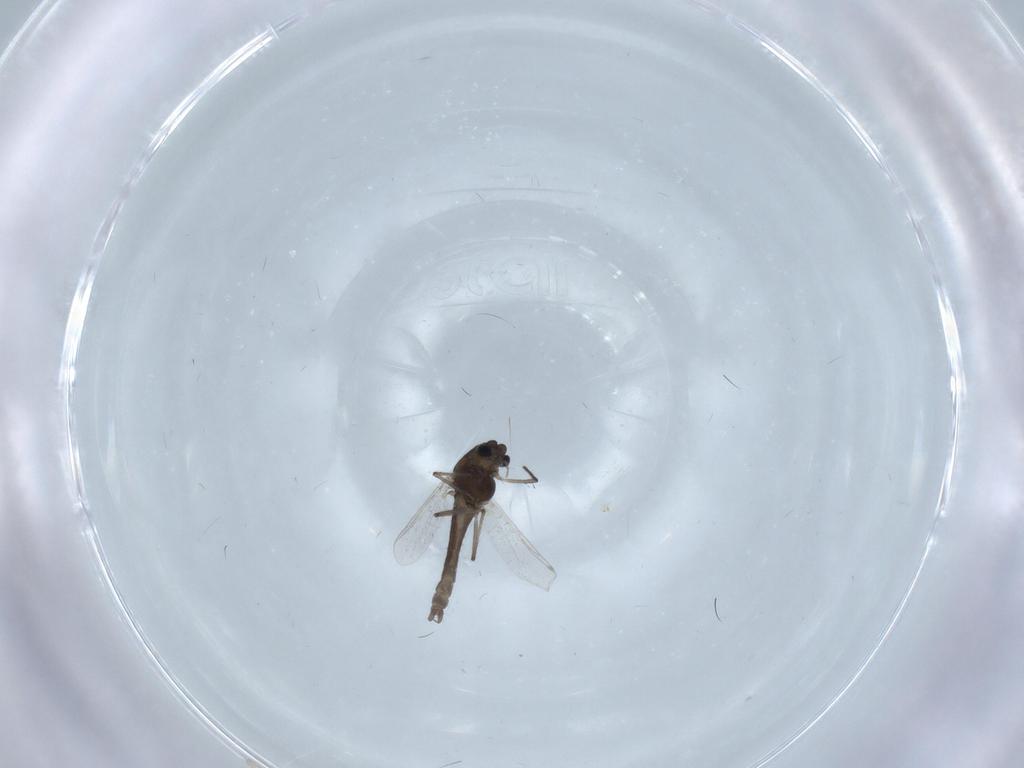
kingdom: Animalia
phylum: Arthropoda
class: Insecta
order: Diptera
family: Chironomidae
